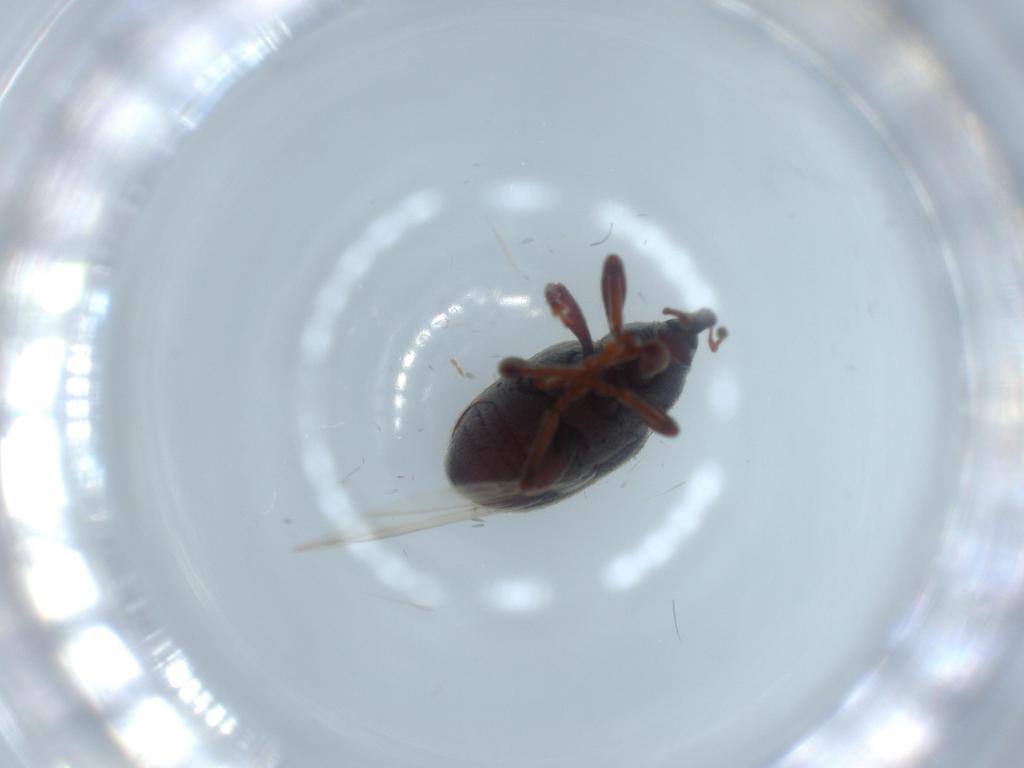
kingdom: Animalia
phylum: Arthropoda
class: Insecta
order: Coleoptera
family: Curculionidae
